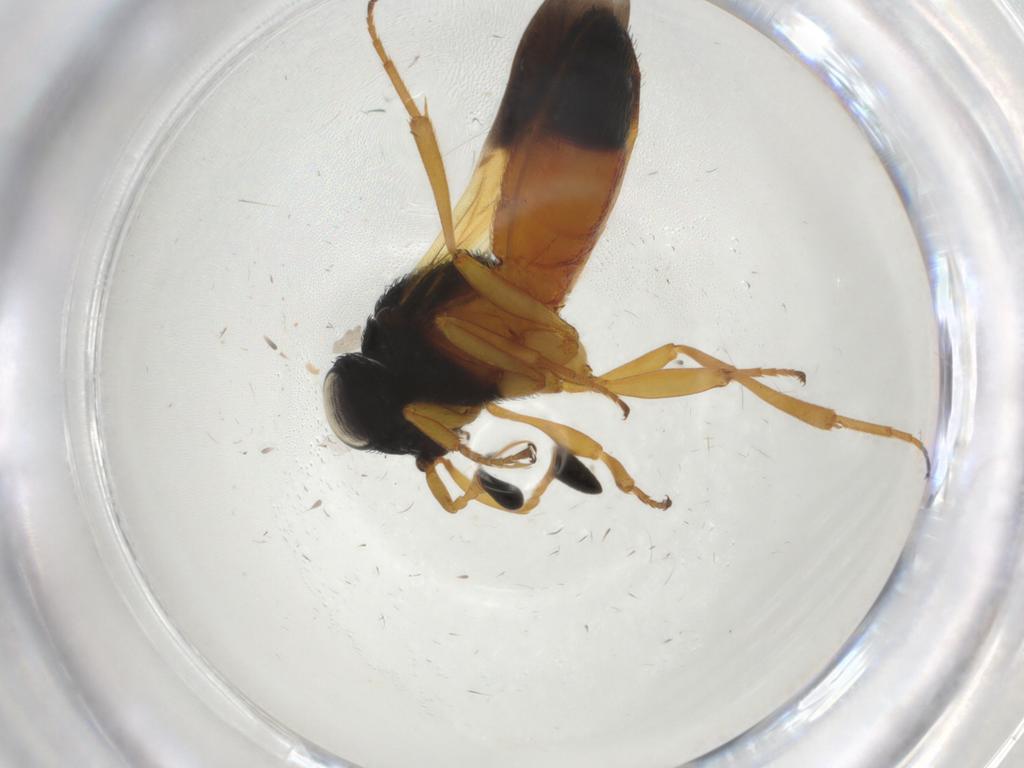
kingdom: Animalia
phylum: Arthropoda
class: Insecta
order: Hymenoptera
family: Scelionidae
